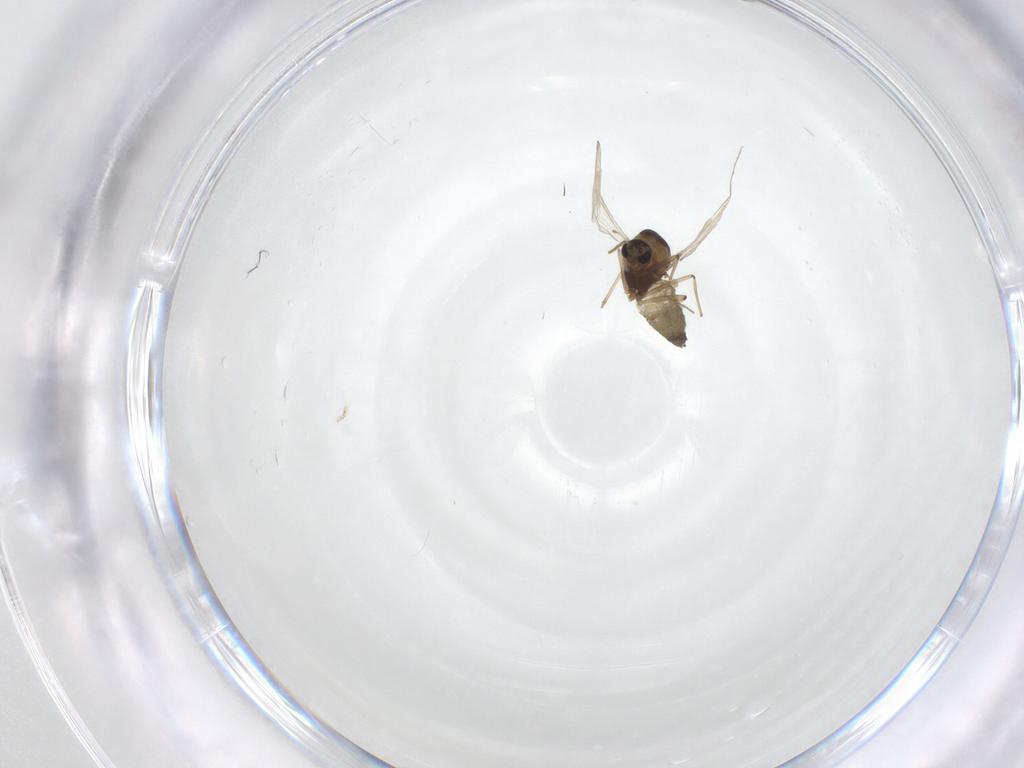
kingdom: Animalia
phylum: Arthropoda
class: Insecta
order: Diptera
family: Chironomidae
